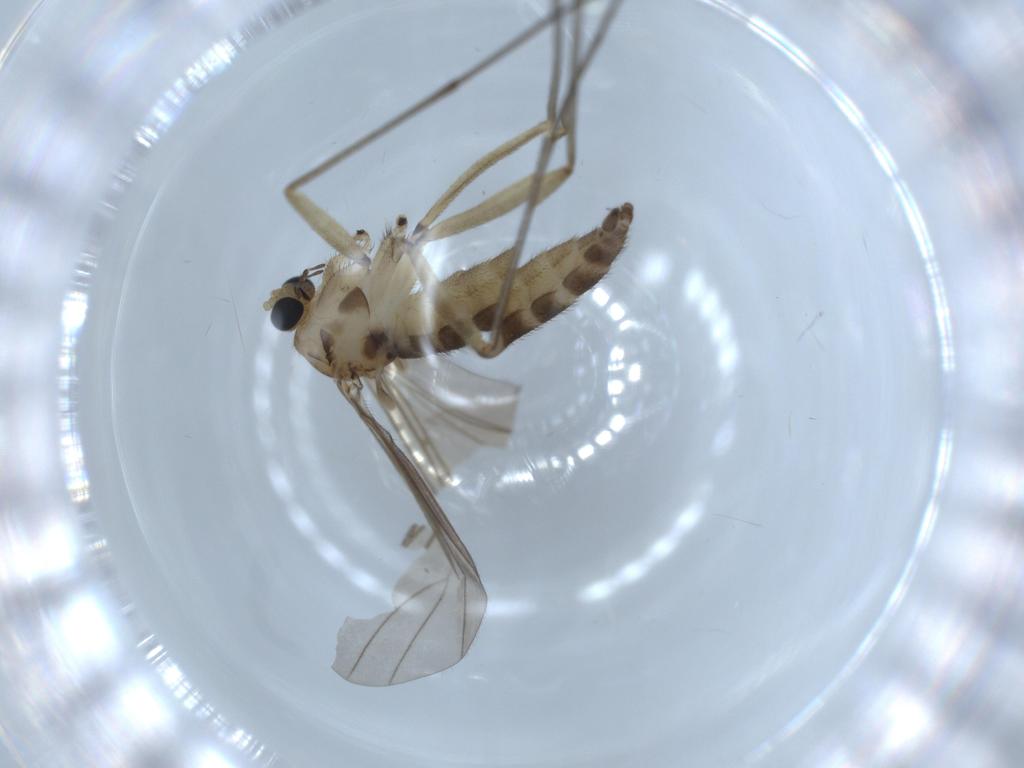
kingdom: Animalia
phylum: Arthropoda
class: Insecta
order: Diptera
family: Sciaridae
